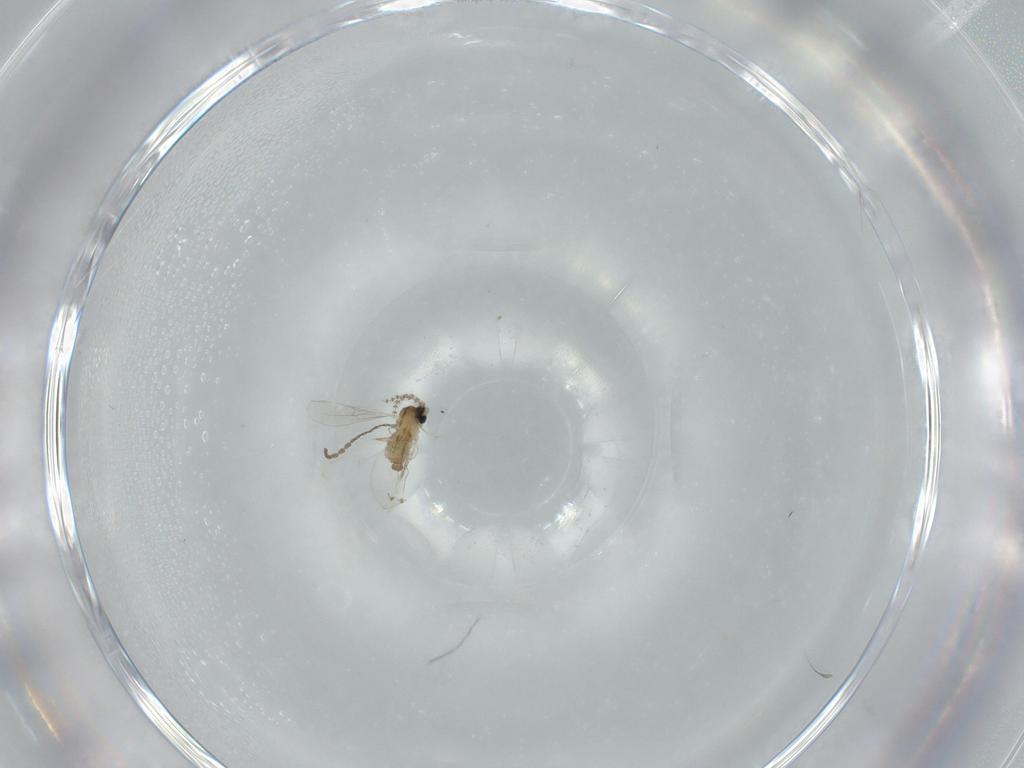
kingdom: Animalia
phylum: Arthropoda
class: Insecta
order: Diptera
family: Cecidomyiidae
